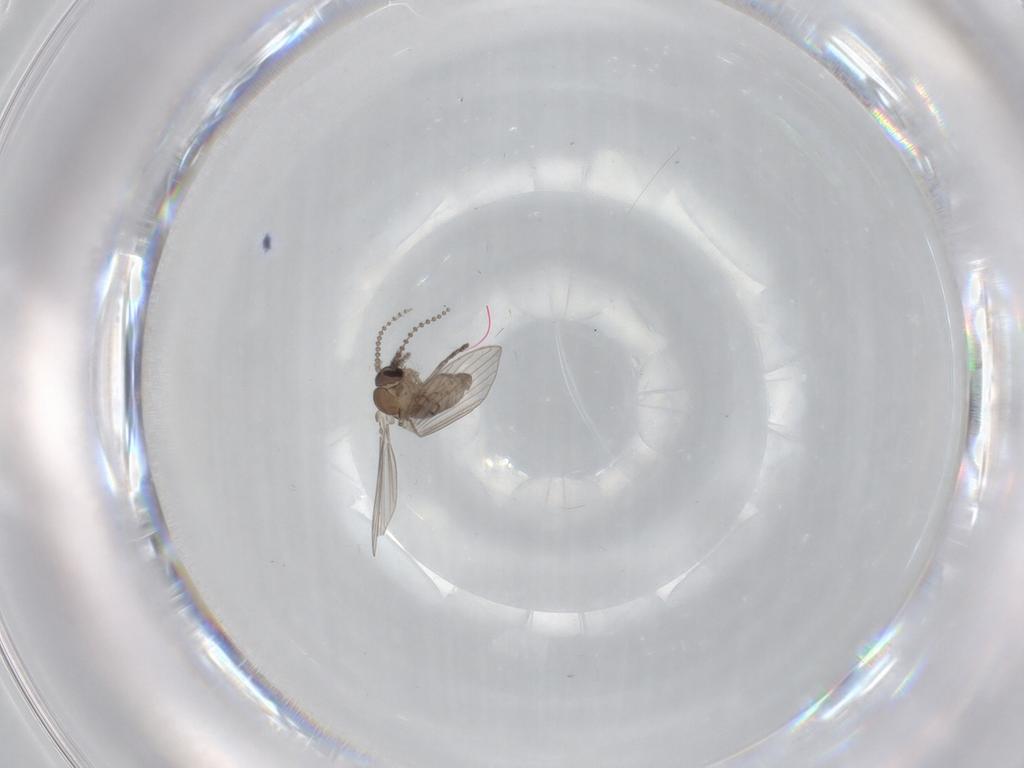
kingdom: Animalia
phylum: Arthropoda
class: Insecta
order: Diptera
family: Psychodidae
